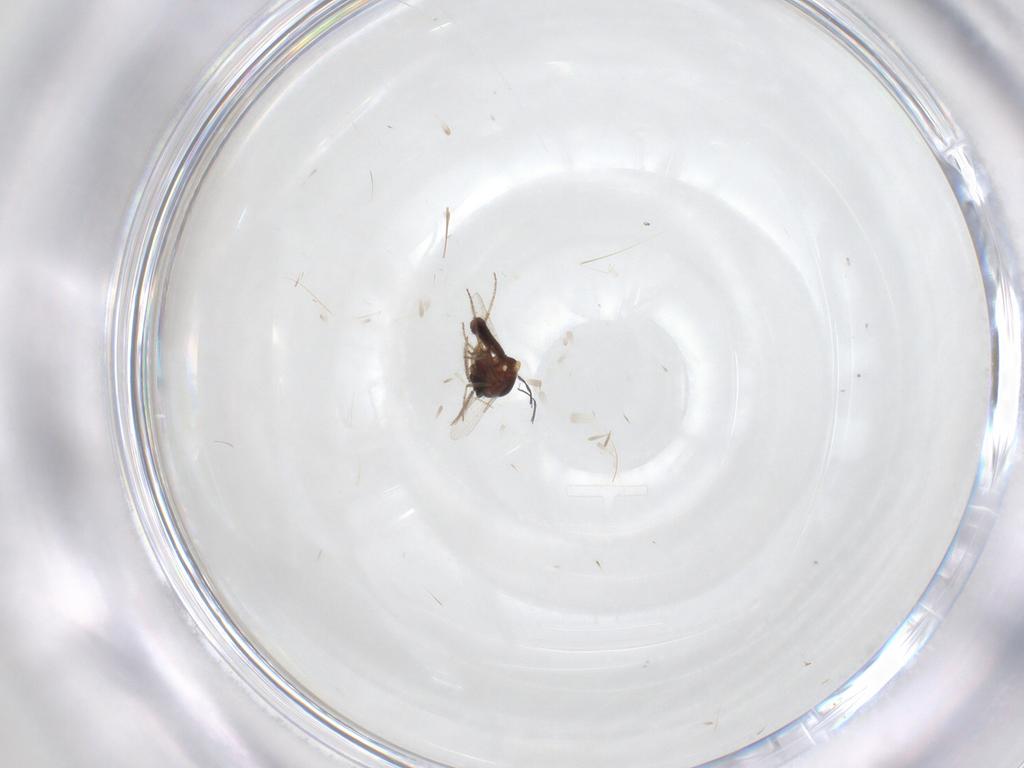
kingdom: Animalia
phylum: Arthropoda
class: Insecta
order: Diptera
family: Ceratopogonidae
